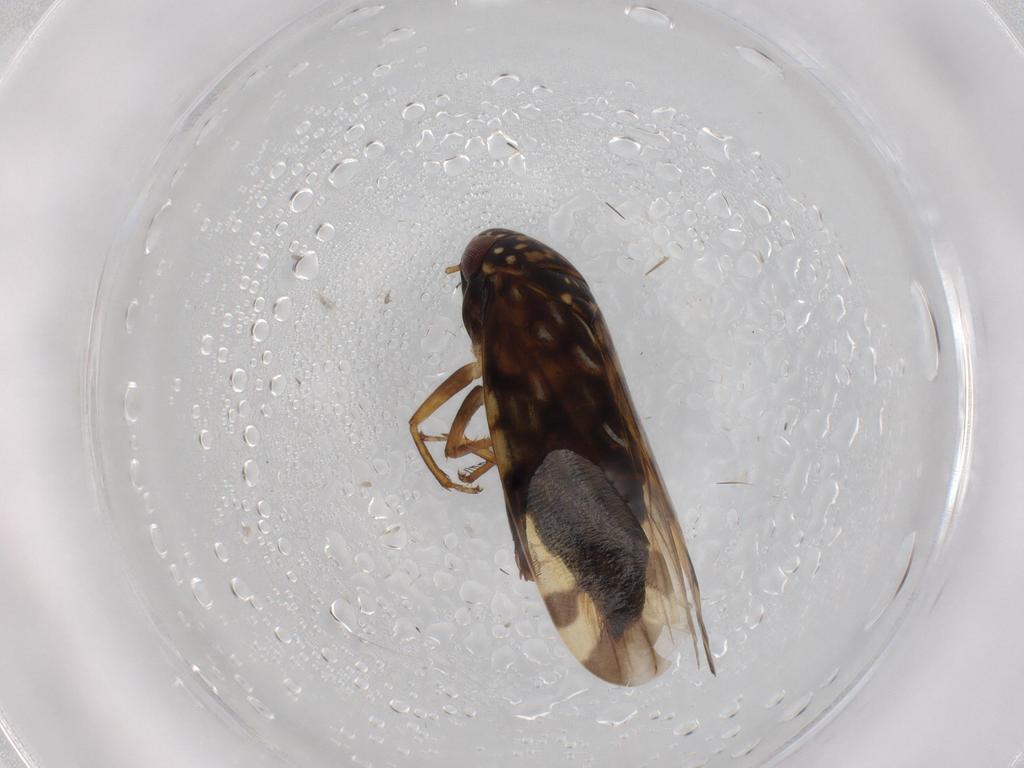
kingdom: Animalia
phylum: Arthropoda
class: Insecta
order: Hemiptera
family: Cicadellidae
